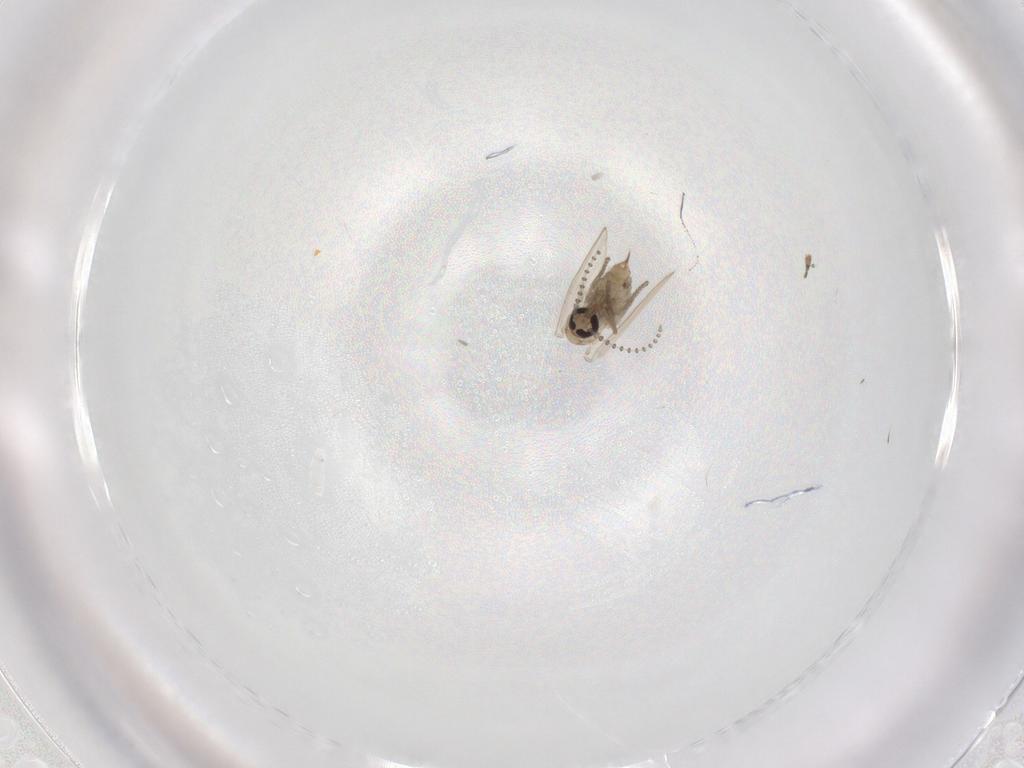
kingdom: Animalia
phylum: Arthropoda
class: Insecta
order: Diptera
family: Psychodidae
